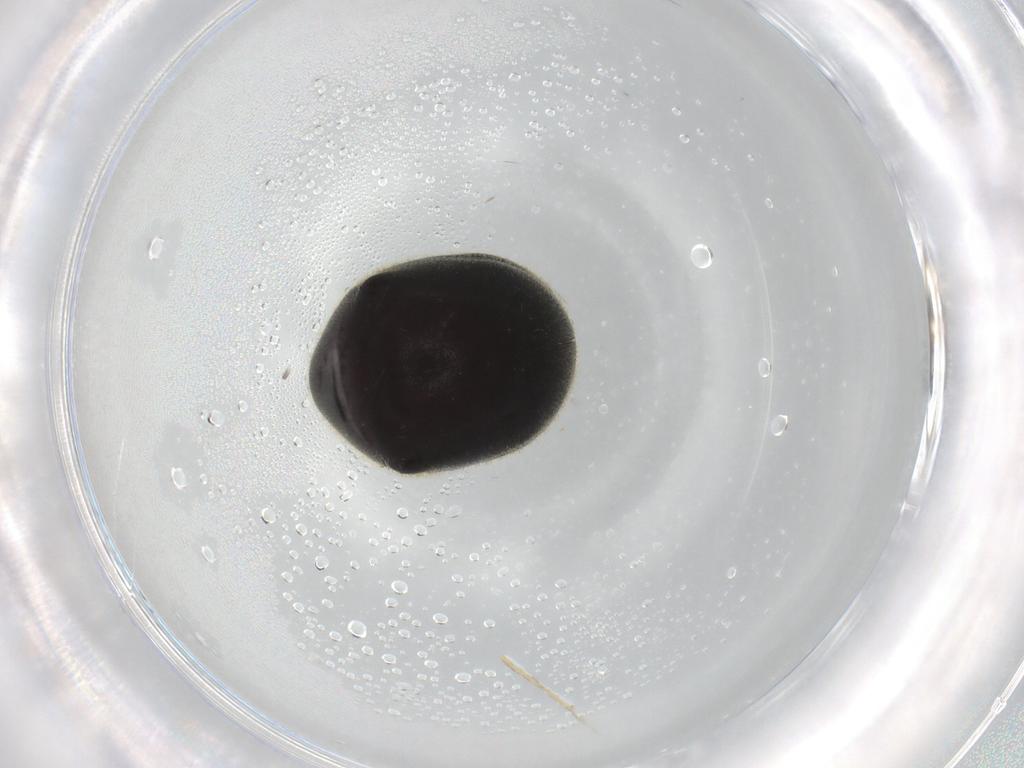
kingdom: Animalia
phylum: Arthropoda
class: Insecta
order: Coleoptera
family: Ptinidae
